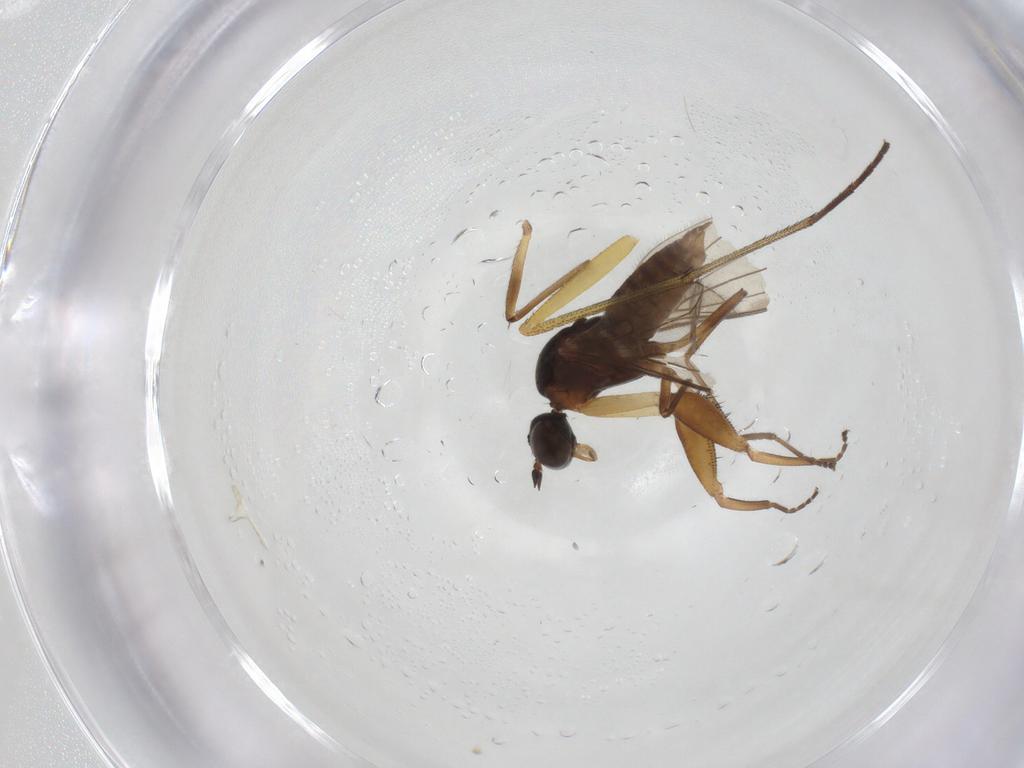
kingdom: Animalia
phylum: Arthropoda
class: Insecta
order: Diptera
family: Empididae
